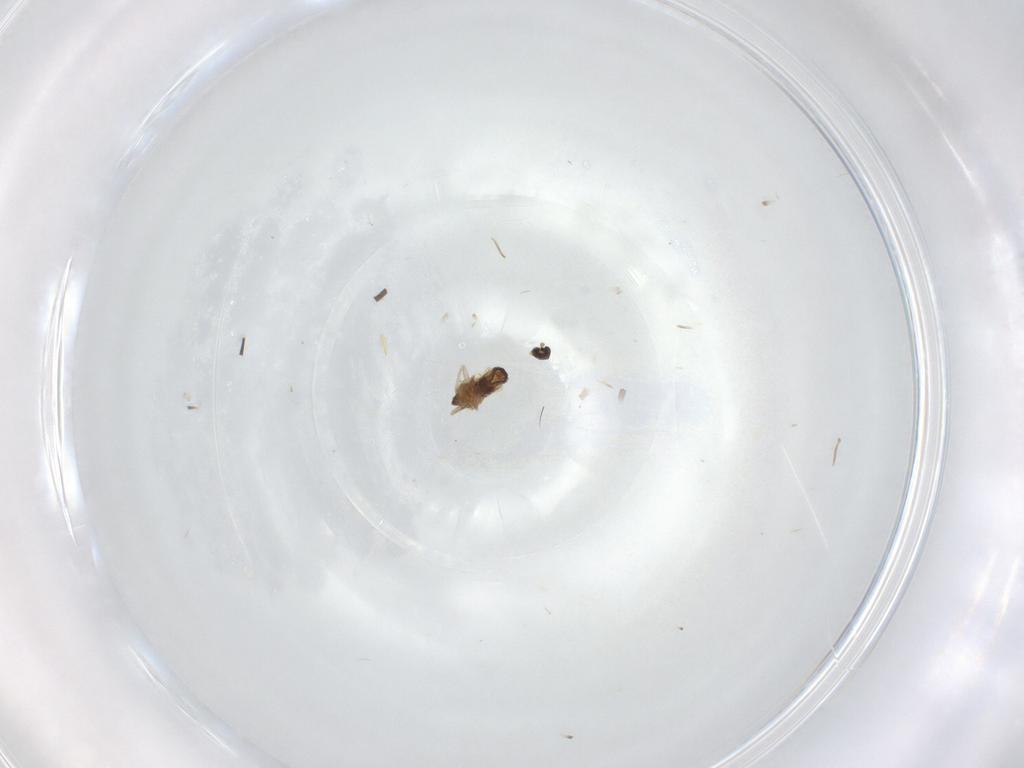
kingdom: Animalia
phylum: Arthropoda
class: Insecta
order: Diptera
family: Cecidomyiidae
